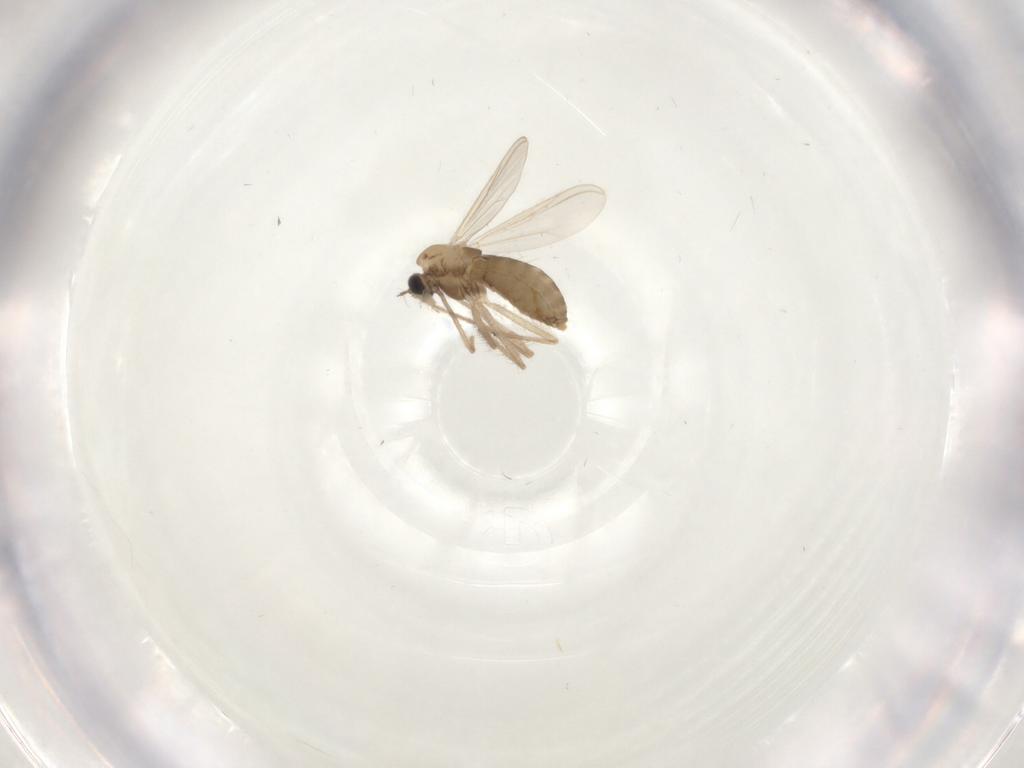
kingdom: Animalia
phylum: Arthropoda
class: Insecta
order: Diptera
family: Chironomidae
